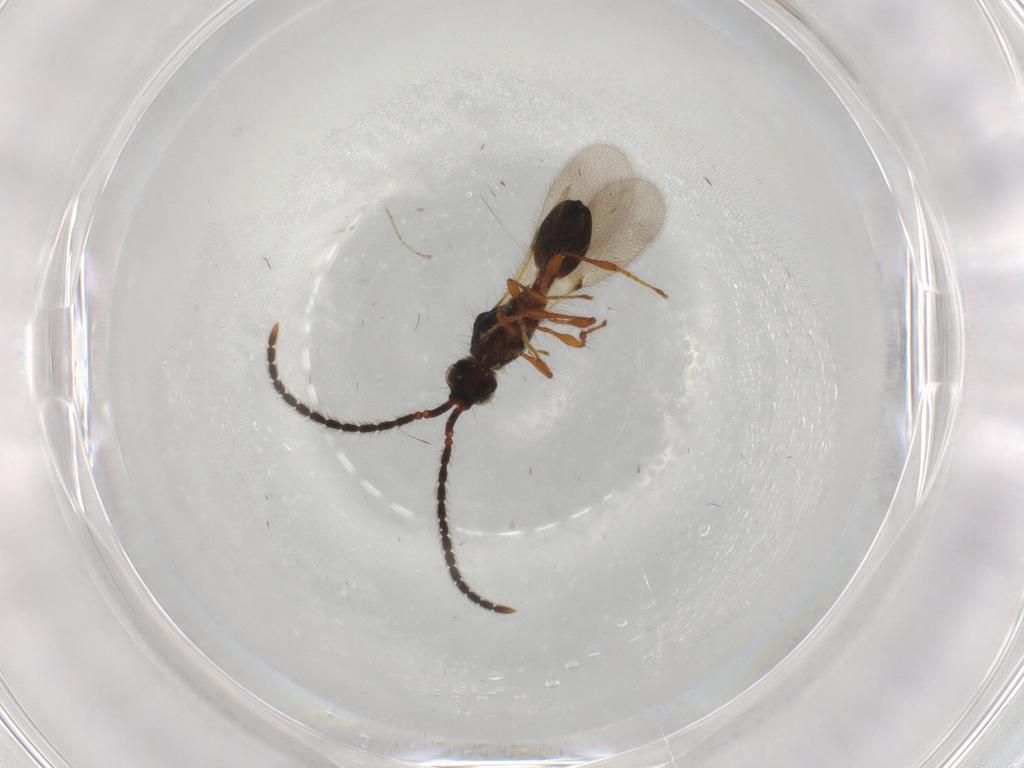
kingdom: Animalia
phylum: Arthropoda
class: Insecta
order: Hymenoptera
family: Diapriidae
